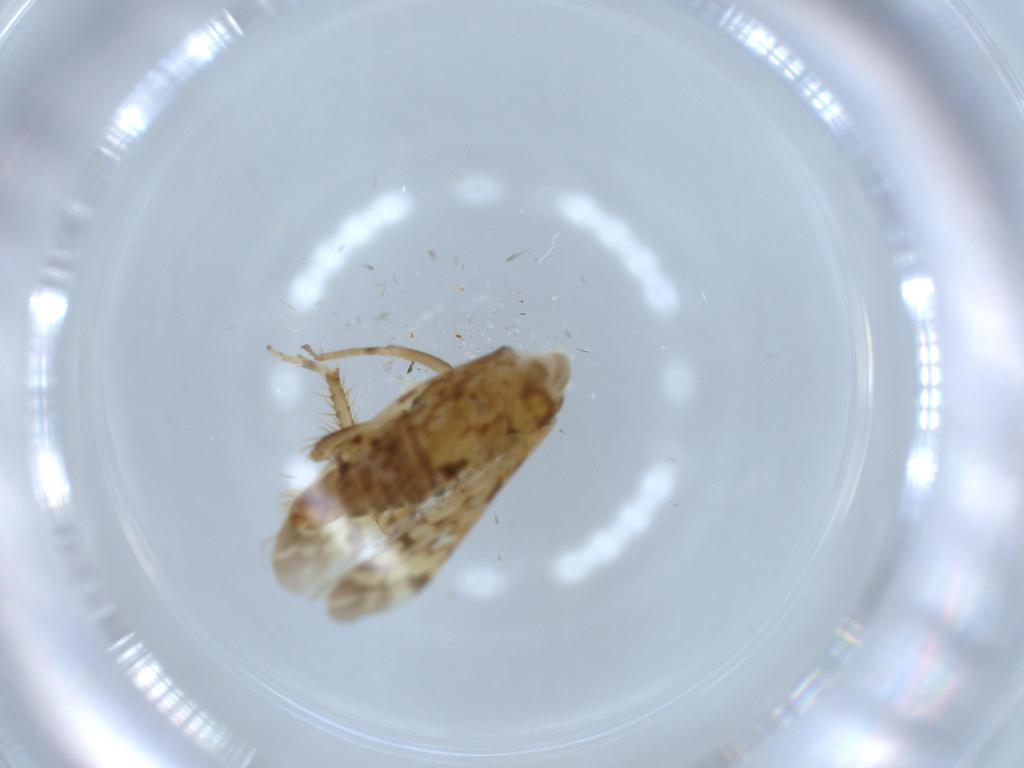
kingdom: Animalia
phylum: Arthropoda
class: Insecta
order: Hemiptera
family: Cicadellidae
